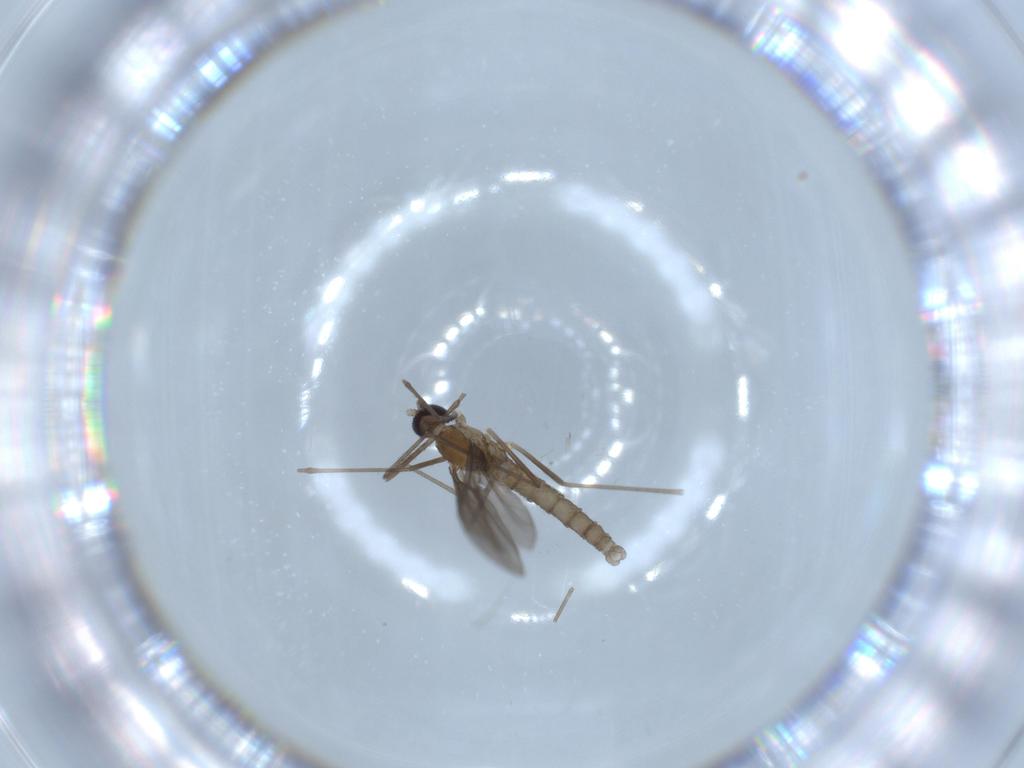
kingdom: Animalia
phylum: Arthropoda
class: Insecta
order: Diptera
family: Cecidomyiidae
